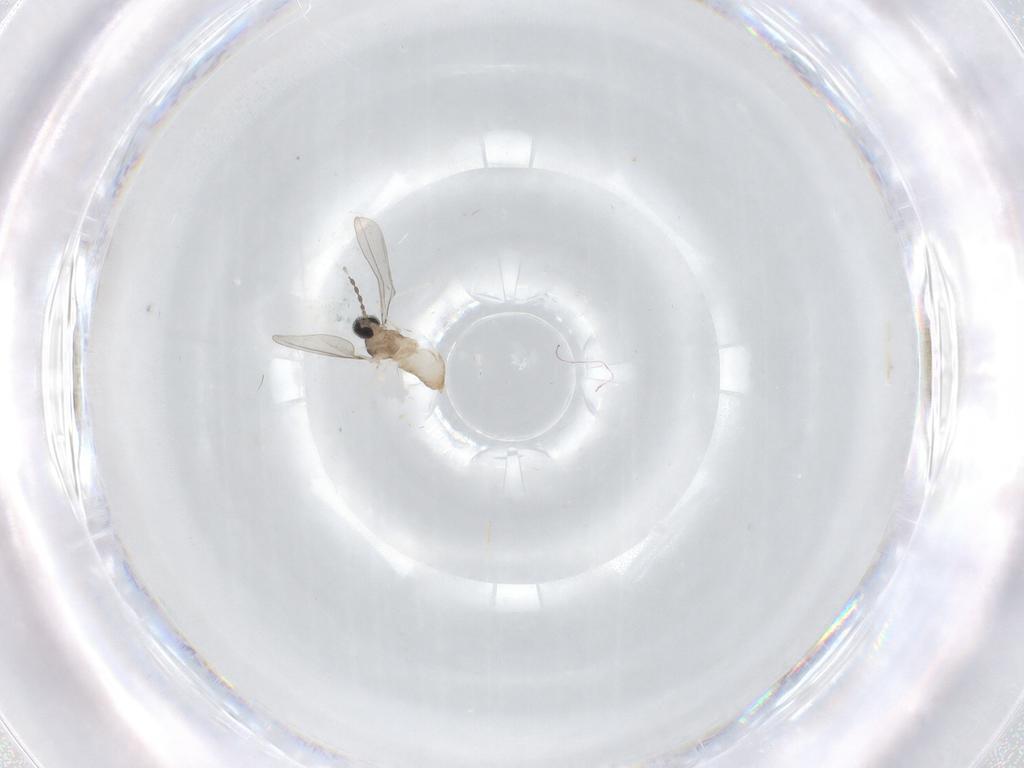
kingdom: Animalia
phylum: Arthropoda
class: Insecta
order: Diptera
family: Cecidomyiidae
